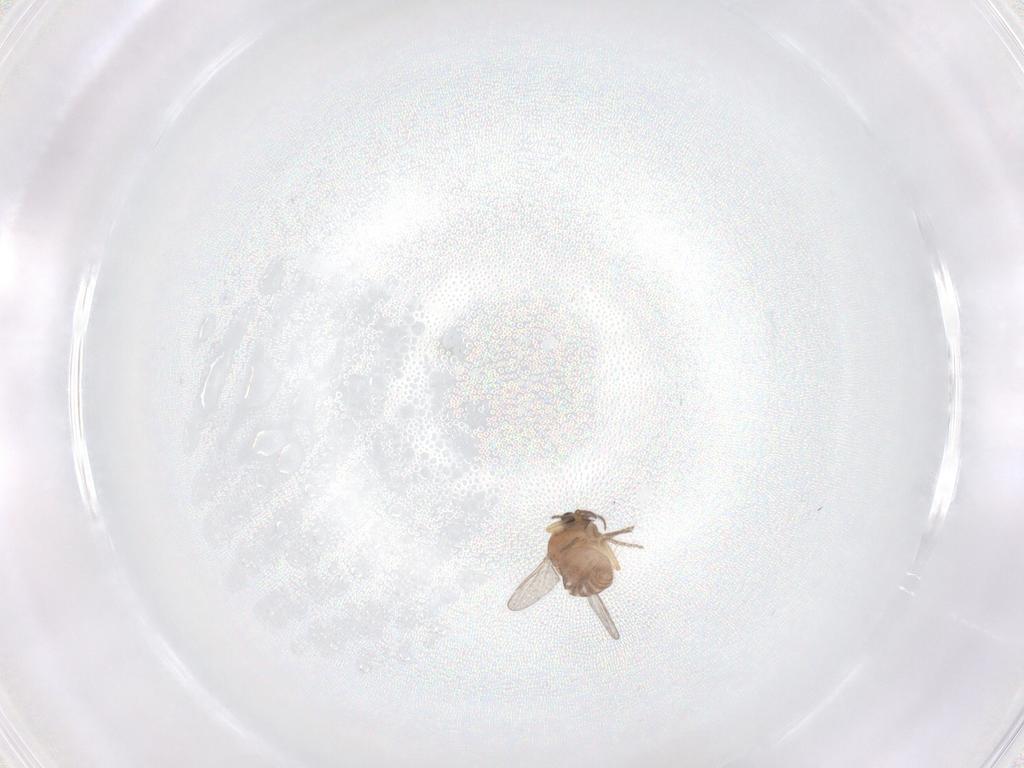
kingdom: Animalia
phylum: Arthropoda
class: Insecta
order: Diptera
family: Ceratopogonidae
